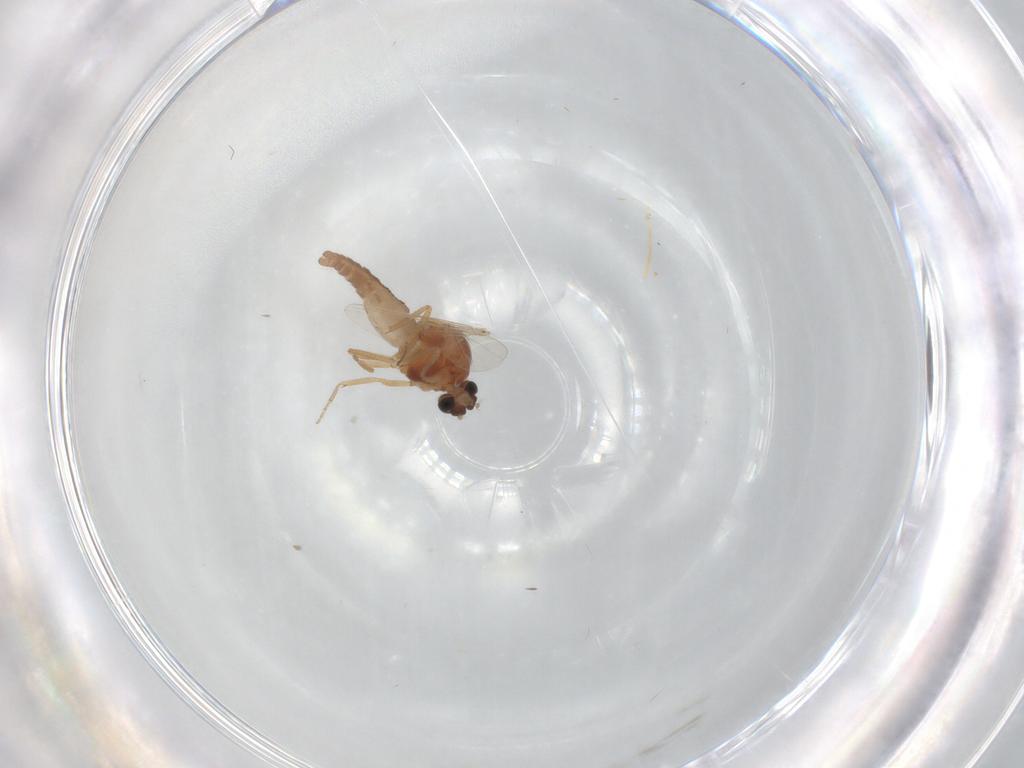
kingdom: Animalia
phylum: Arthropoda
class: Insecta
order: Diptera
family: Ceratopogonidae
